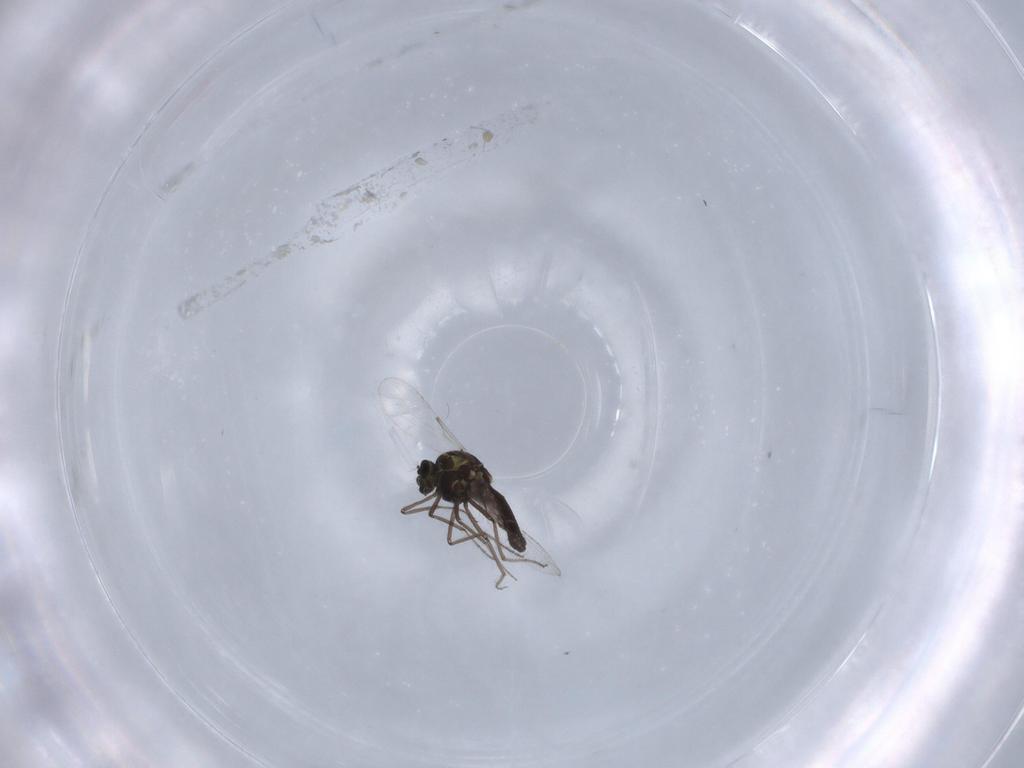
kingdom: Animalia
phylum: Arthropoda
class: Insecta
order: Diptera
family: Ceratopogonidae
